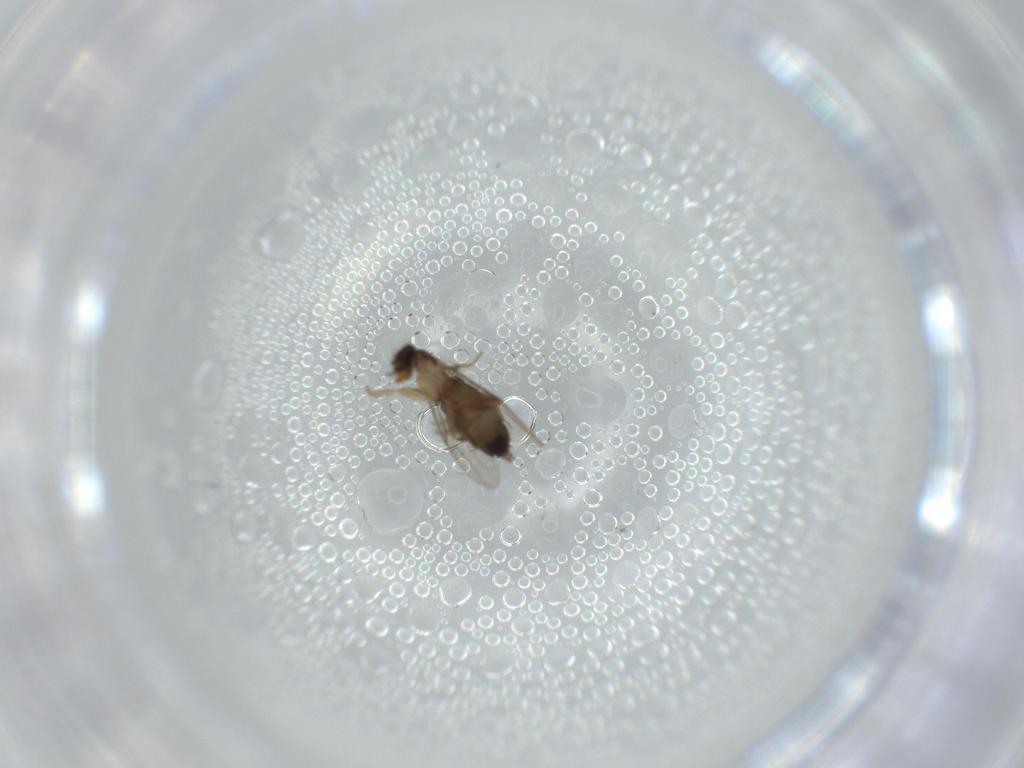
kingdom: Animalia
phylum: Arthropoda
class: Insecta
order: Diptera
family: Phoridae
